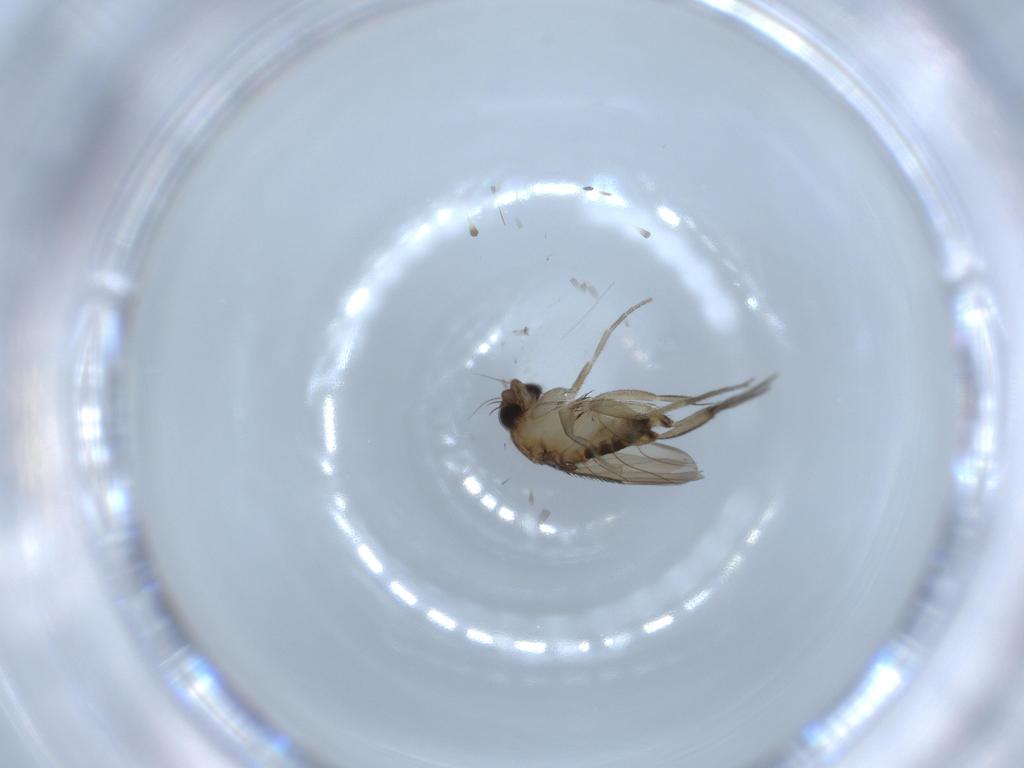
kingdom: Animalia
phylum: Arthropoda
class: Insecta
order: Diptera
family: Phoridae
